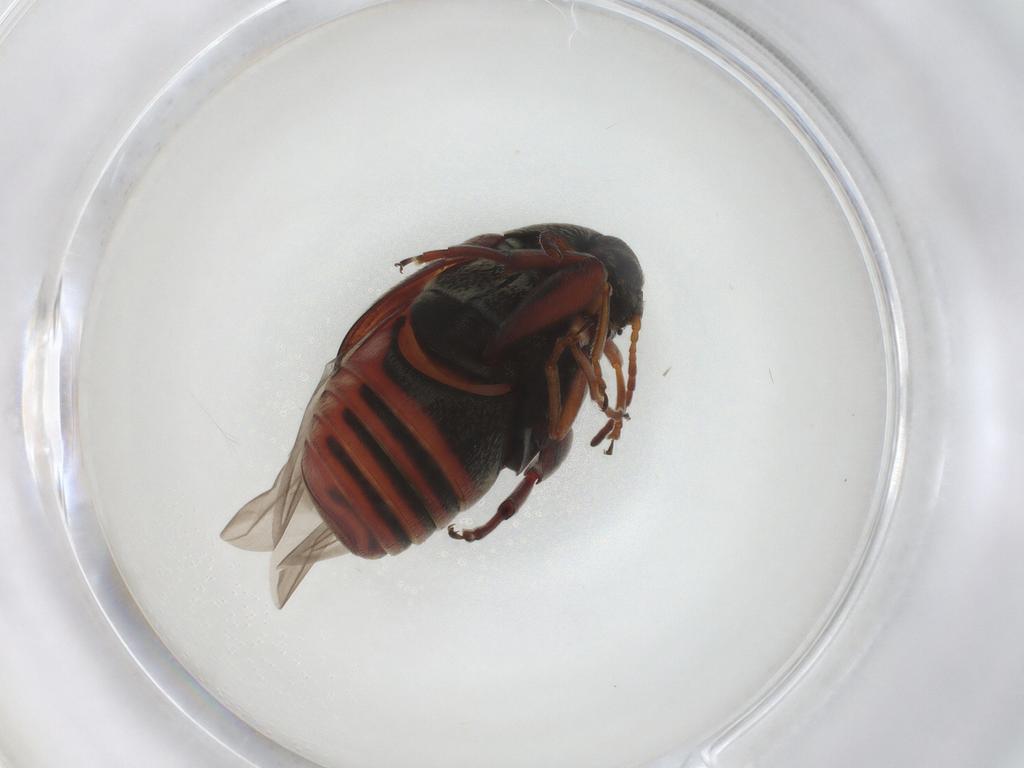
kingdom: Animalia
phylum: Arthropoda
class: Insecta
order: Coleoptera
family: Chrysomelidae
